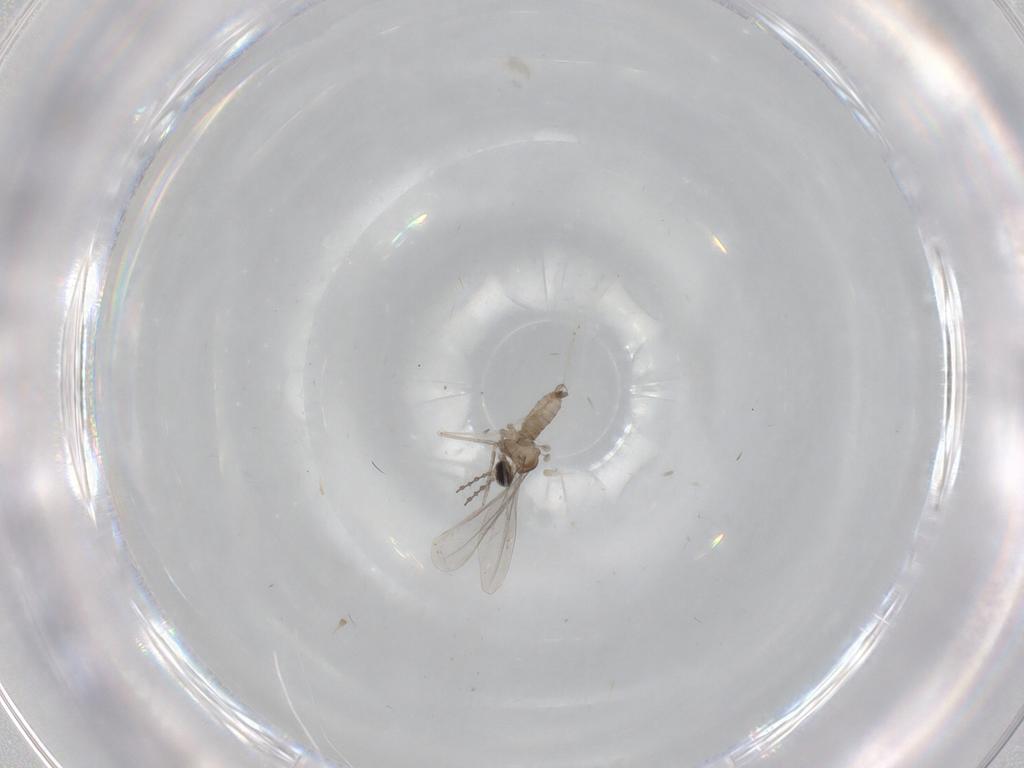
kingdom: Animalia
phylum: Arthropoda
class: Insecta
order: Diptera
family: Cecidomyiidae
